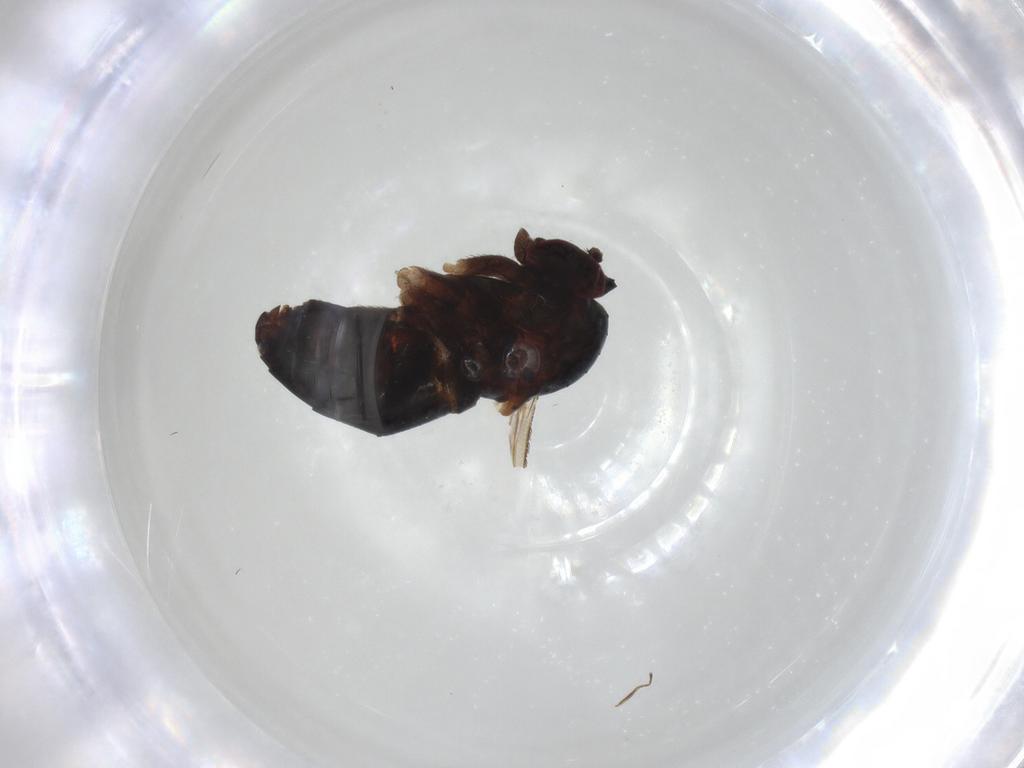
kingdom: Animalia
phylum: Arthropoda
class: Insecta
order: Diptera
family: Dolichopodidae
